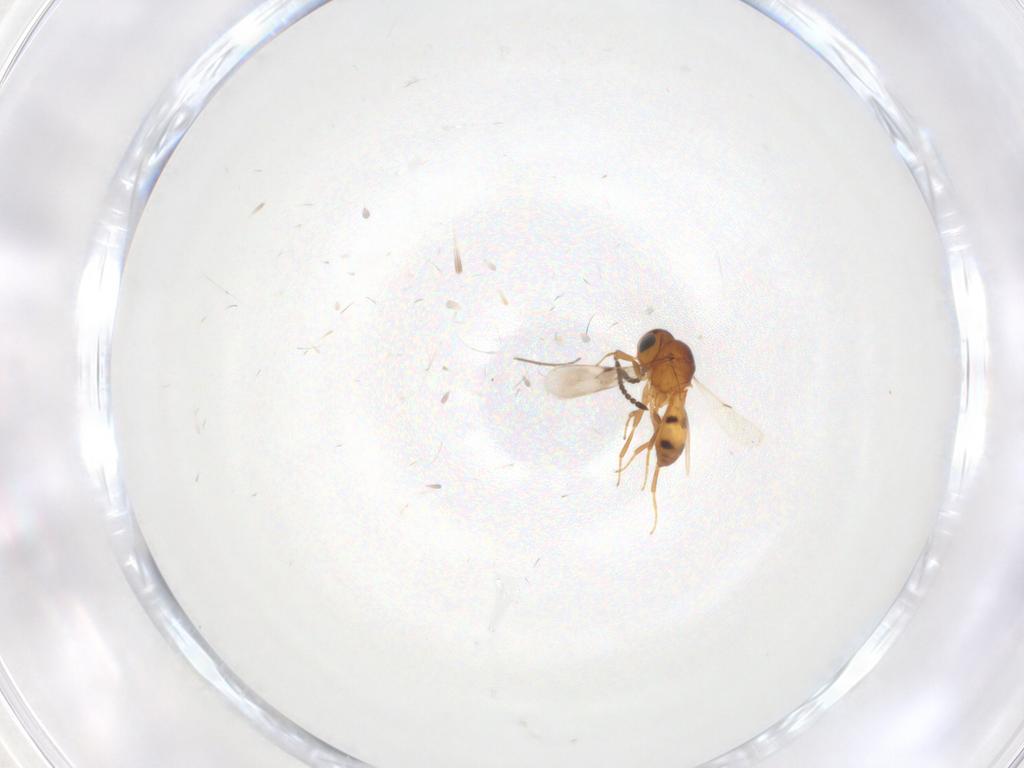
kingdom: Animalia
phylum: Arthropoda
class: Insecta
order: Hymenoptera
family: Scelionidae
